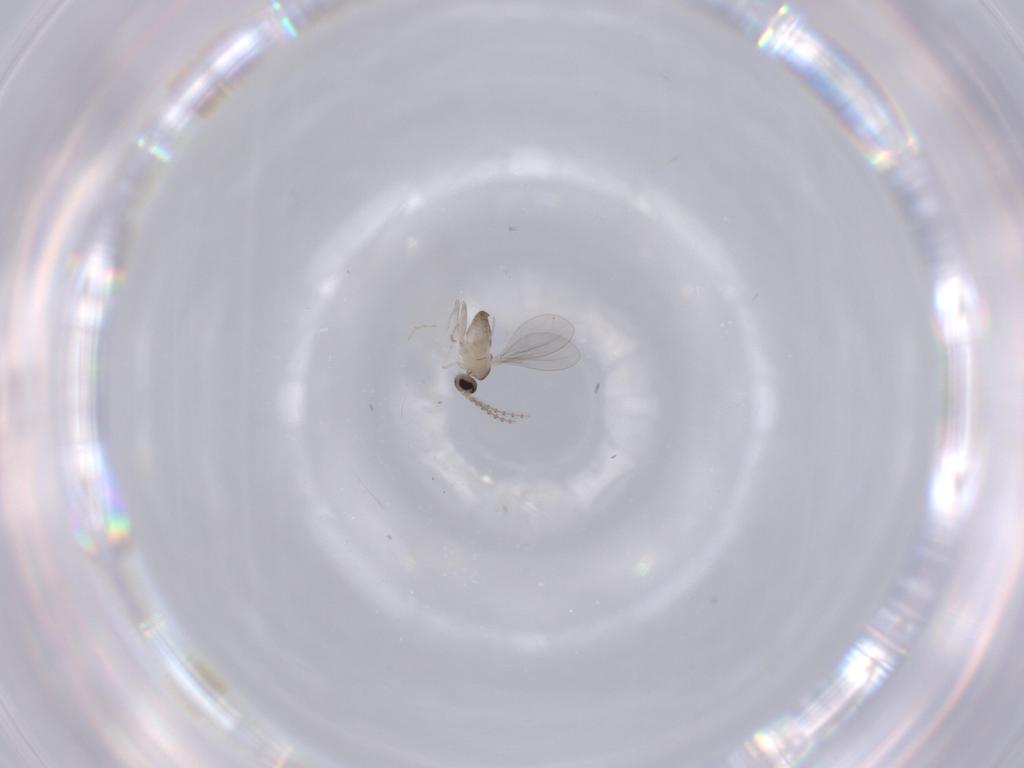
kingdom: Animalia
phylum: Arthropoda
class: Insecta
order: Diptera
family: Cecidomyiidae
